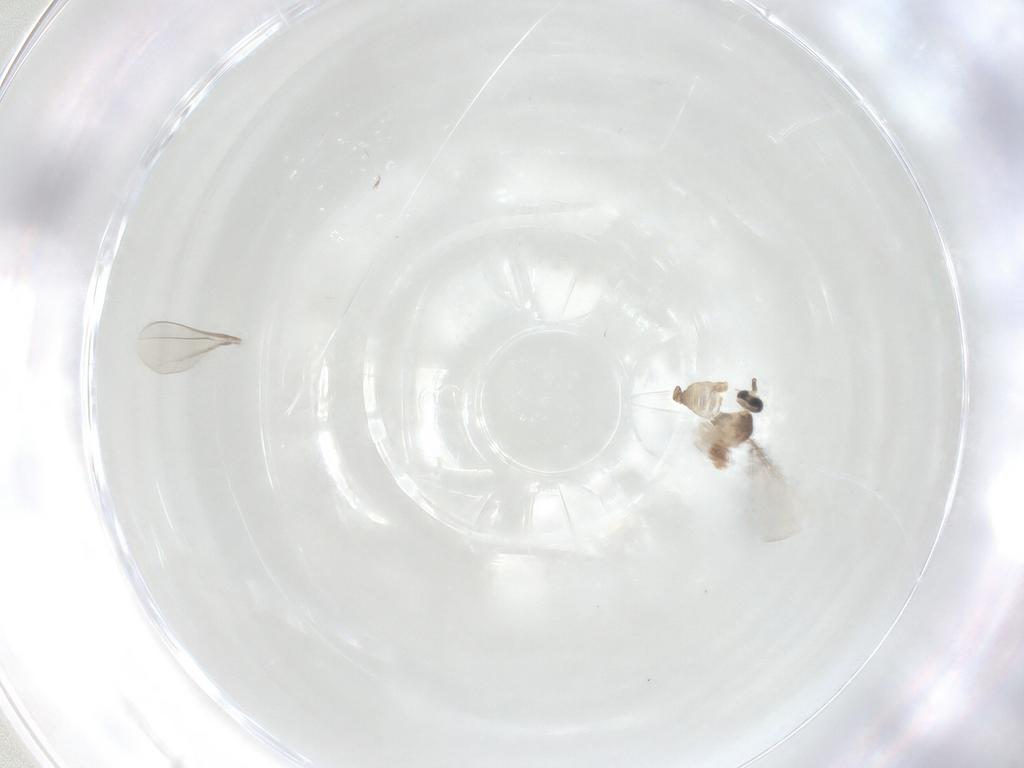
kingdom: Animalia
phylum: Arthropoda
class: Insecta
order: Diptera
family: Cecidomyiidae
